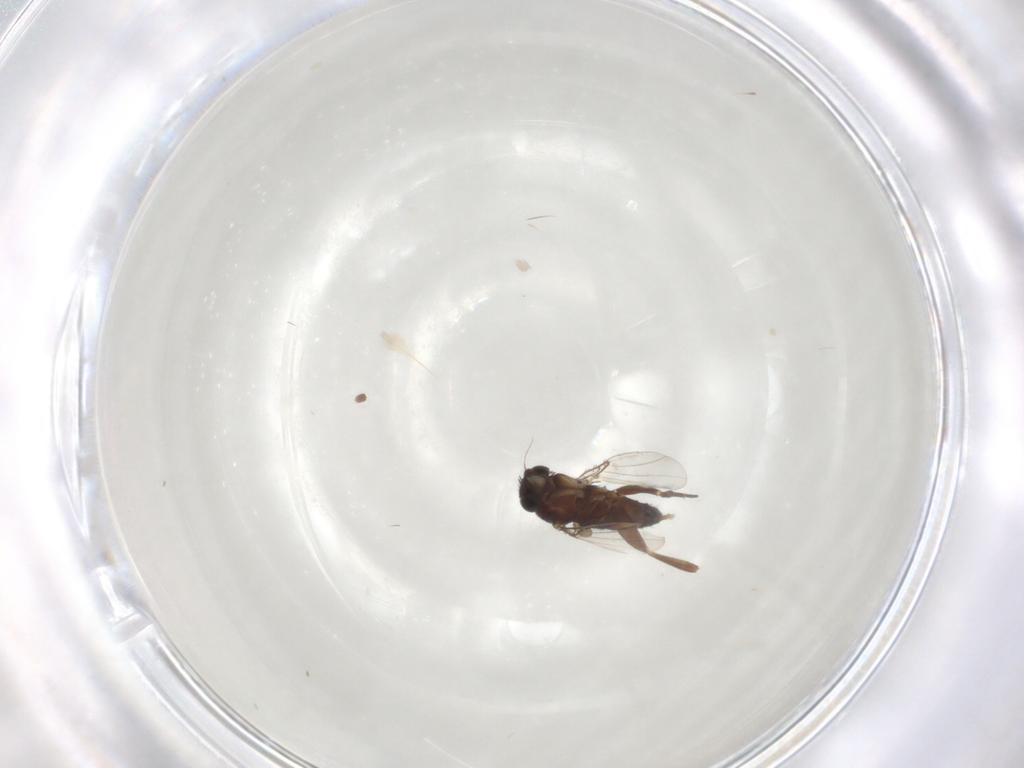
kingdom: Animalia
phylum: Arthropoda
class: Insecta
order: Diptera
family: Phoridae
